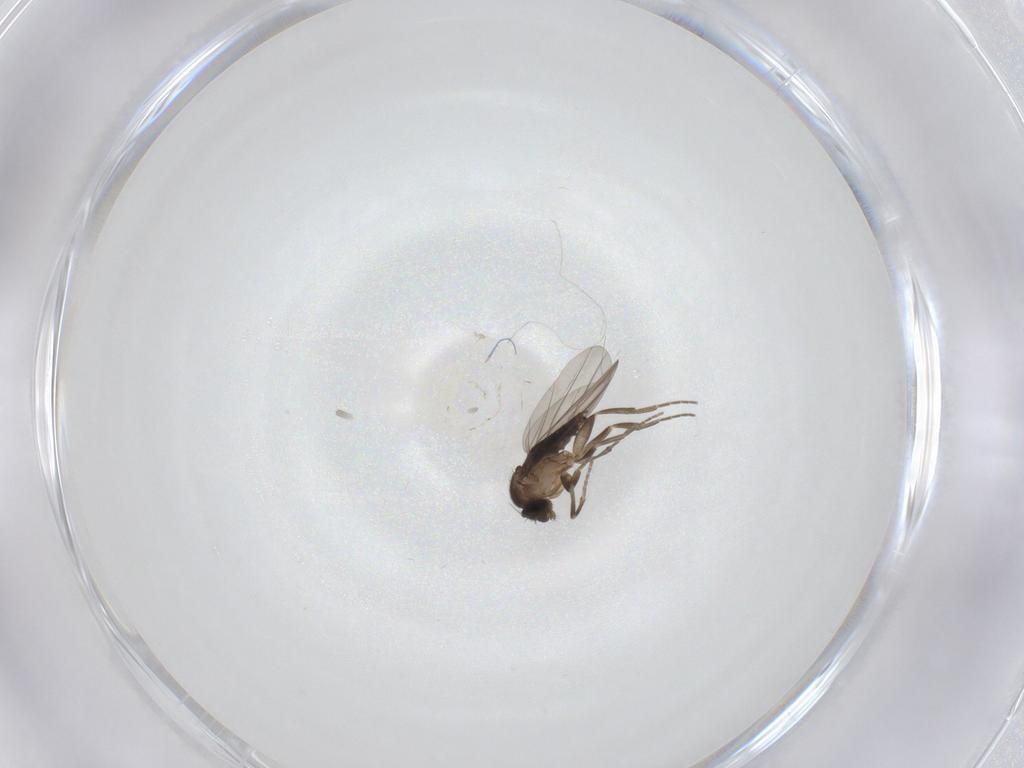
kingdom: Animalia
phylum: Arthropoda
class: Insecta
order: Diptera
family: Phoridae
